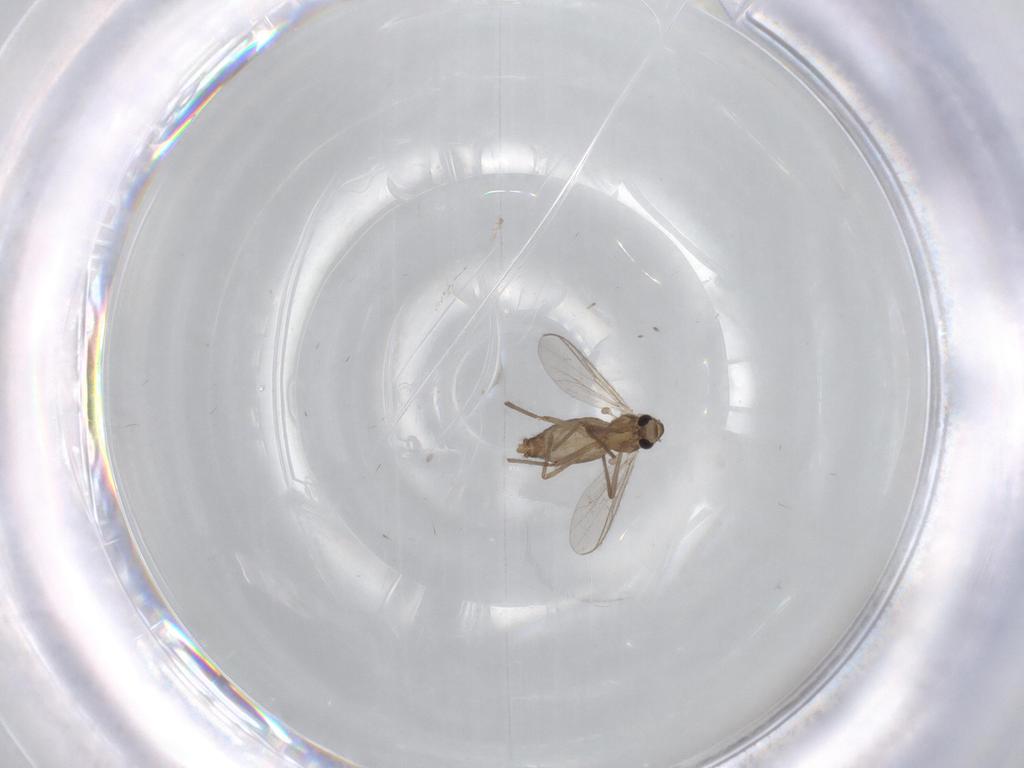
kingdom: Animalia
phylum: Arthropoda
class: Insecta
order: Diptera
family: Chironomidae
